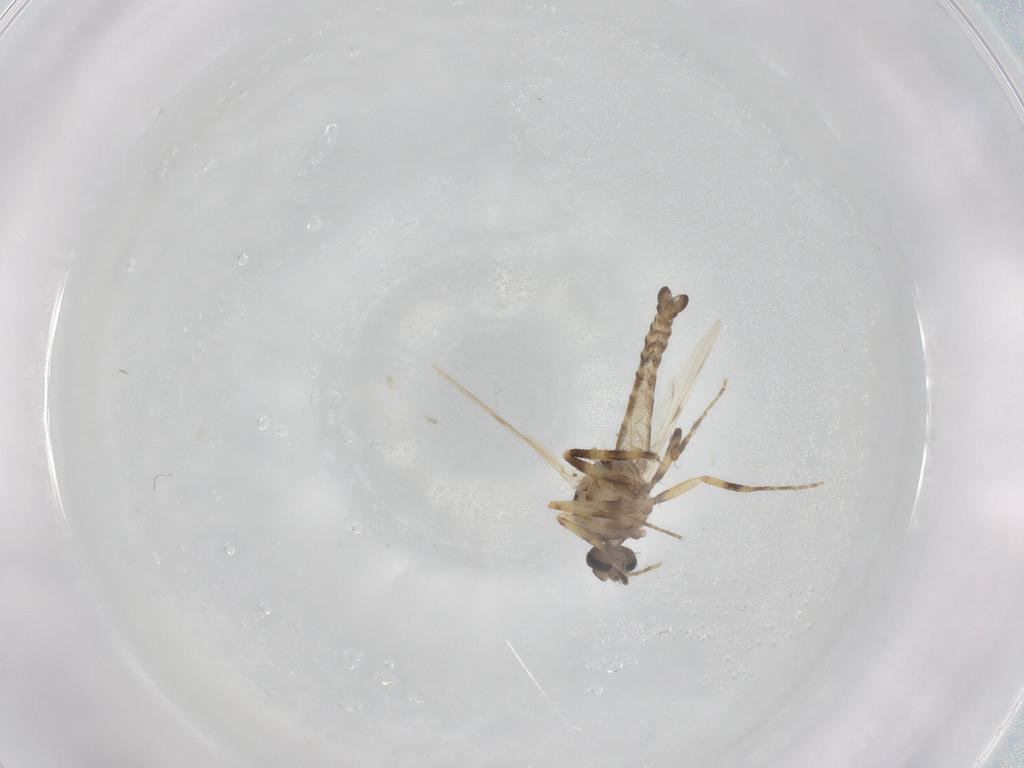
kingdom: Animalia
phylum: Arthropoda
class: Insecta
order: Diptera
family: Ceratopogonidae
